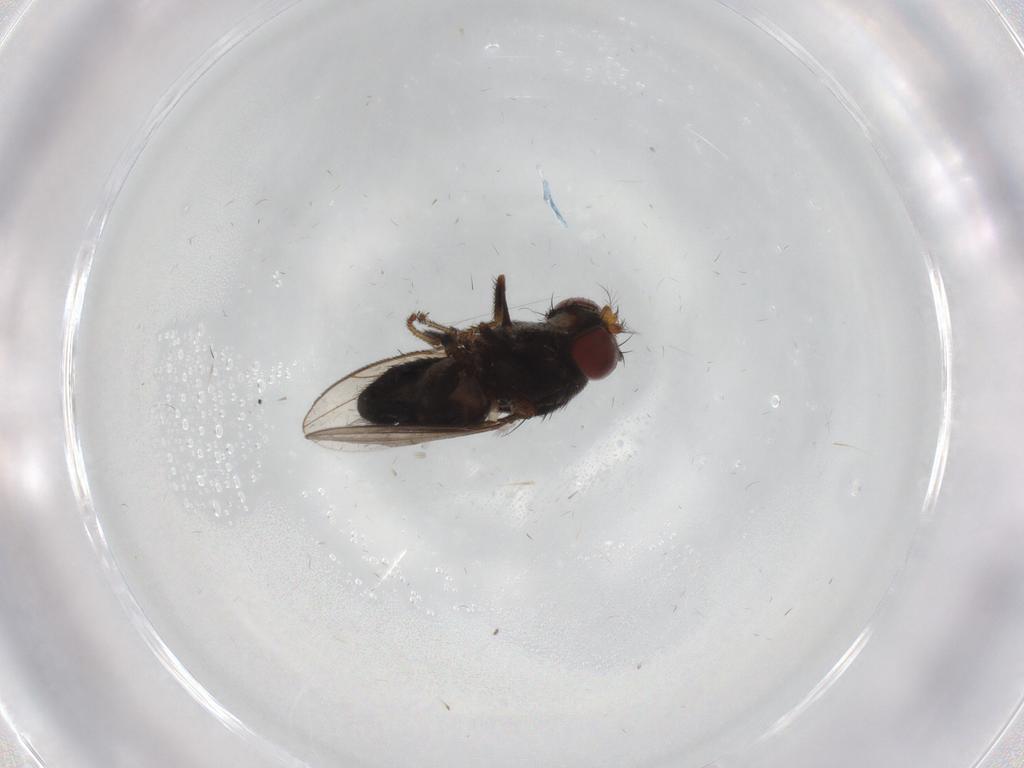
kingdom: Animalia
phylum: Arthropoda
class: Insecta
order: Diptera
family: Ceratopogonidae
